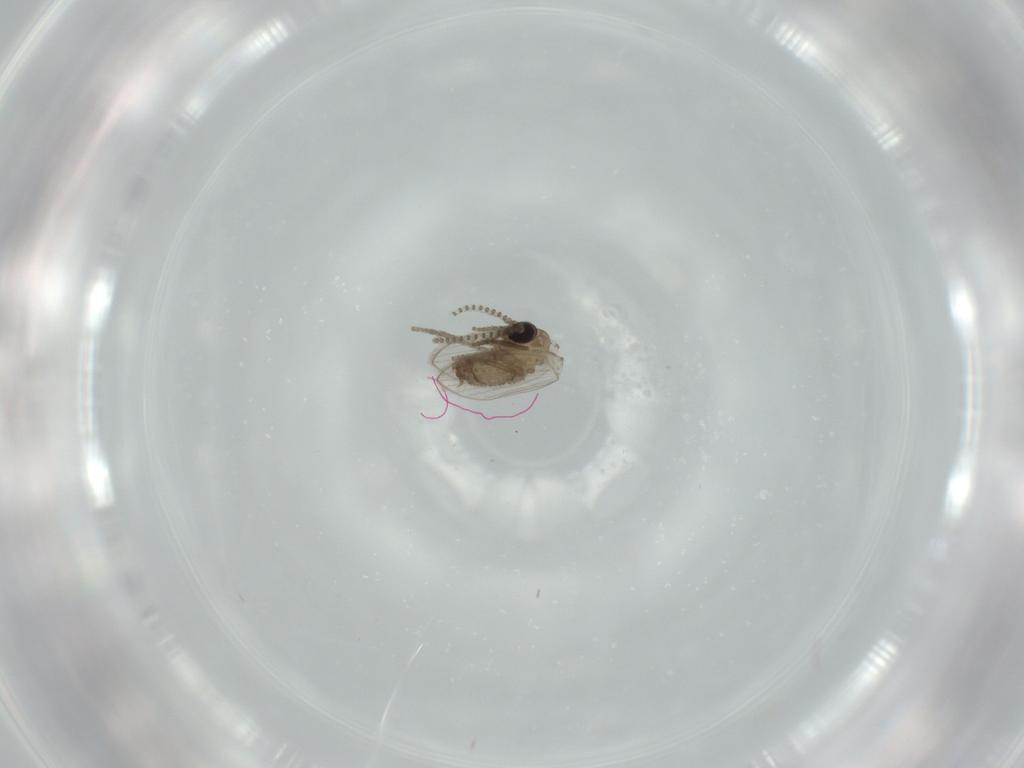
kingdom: Animalia
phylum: Arthropoda
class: Insecta
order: Diptera
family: Psychodidae
